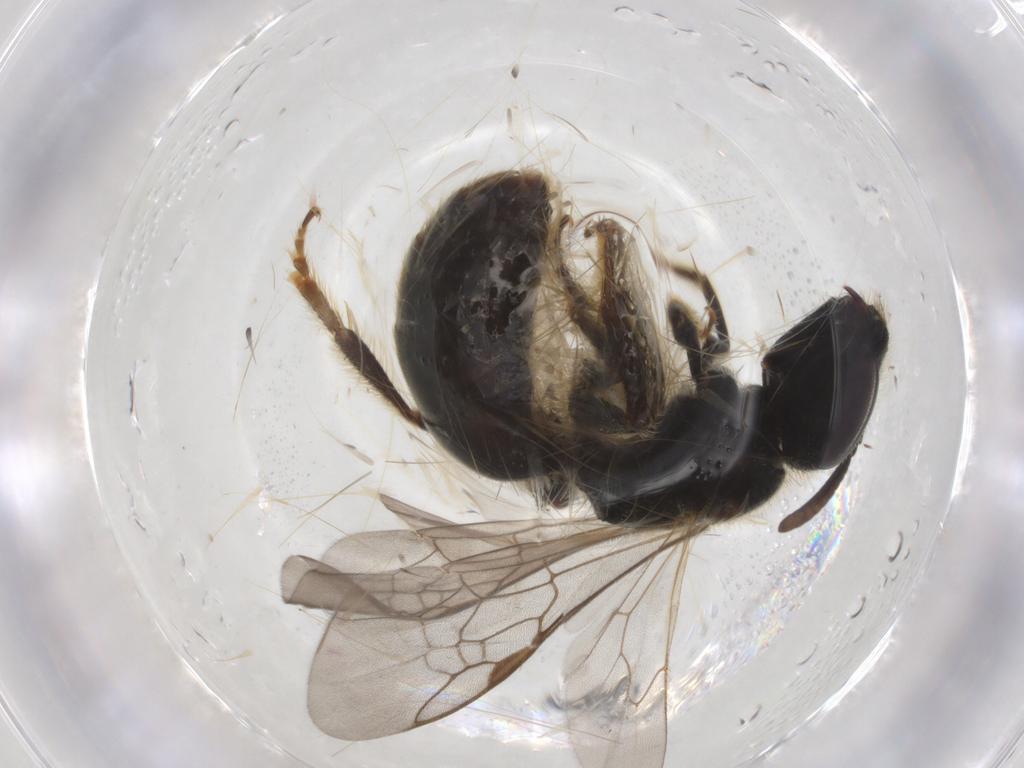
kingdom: Animalia
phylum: Arthropoda
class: Insecta
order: Hymenoptera
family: Apidae
